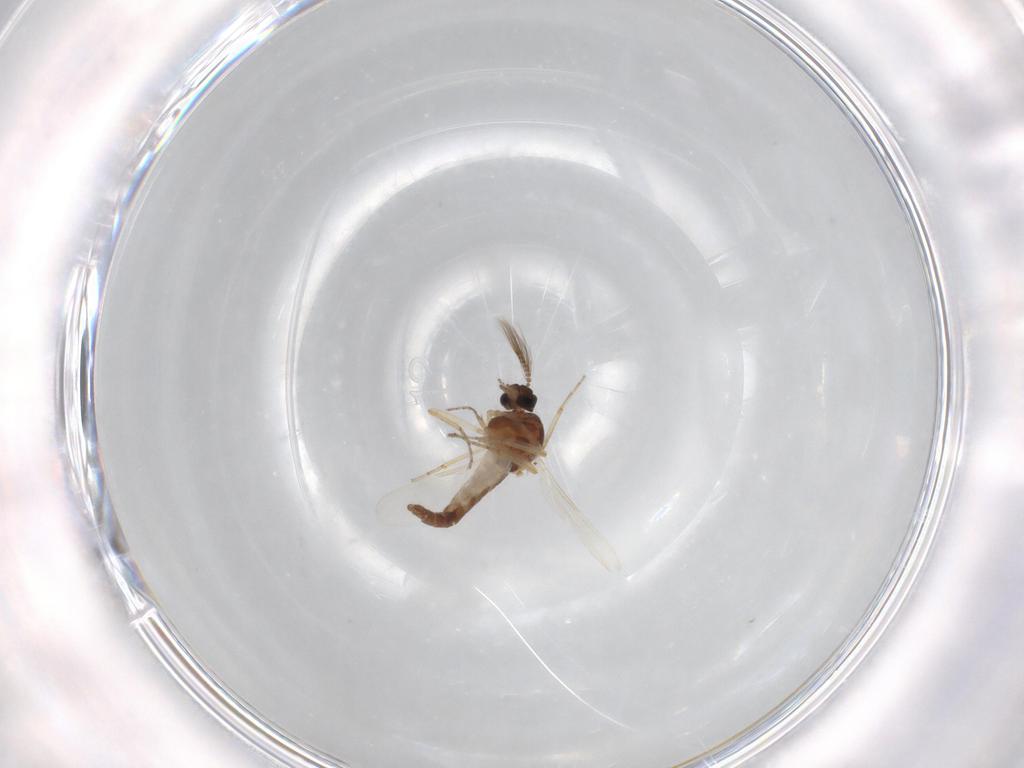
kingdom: Animalia
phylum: Arthropoda
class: Insecta
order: Diptera
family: Ceratopogonidae
